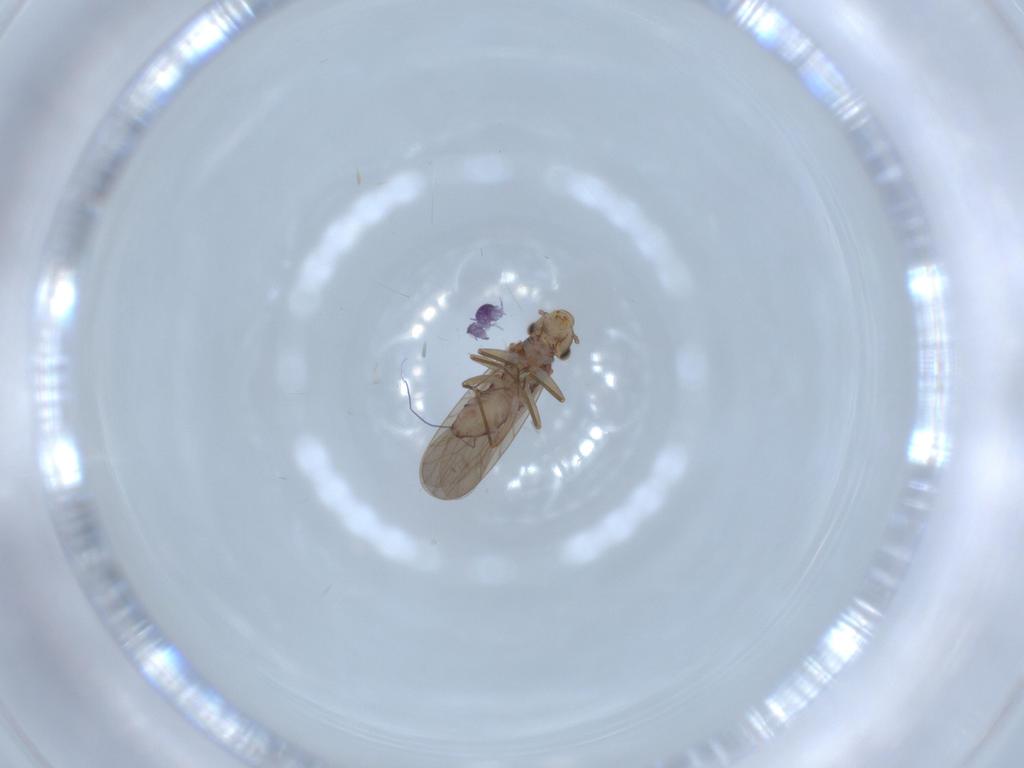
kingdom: Animalia
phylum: Arthropoda
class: Insecta
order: Psocodea
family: Lepidopsocidae
